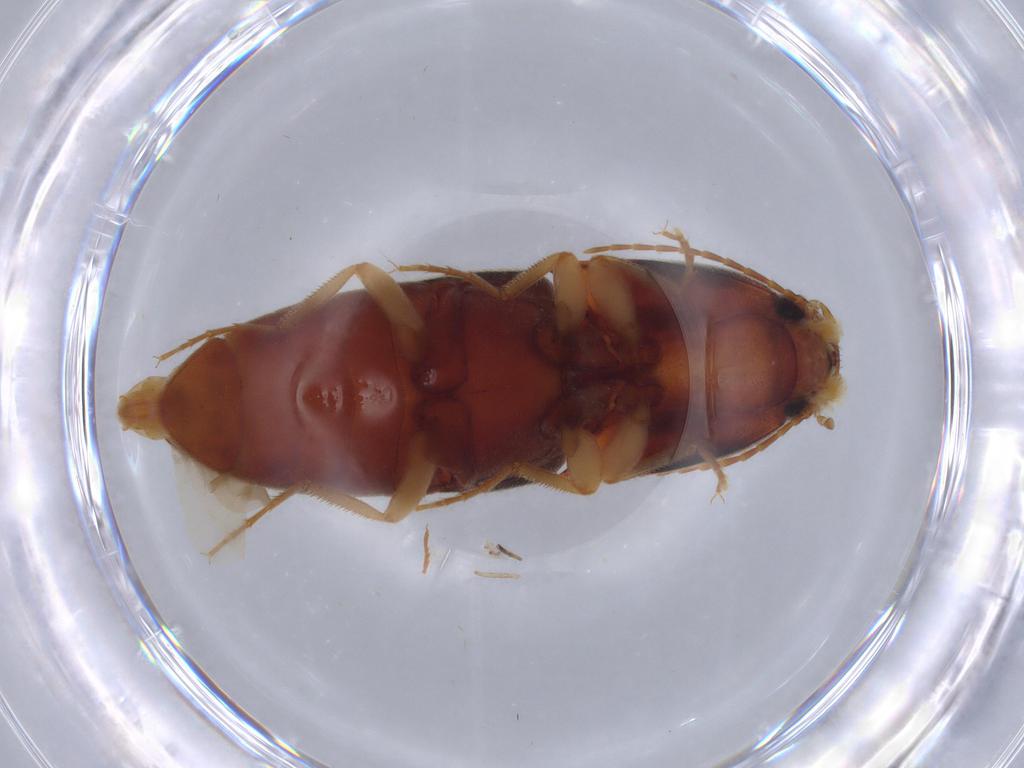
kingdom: Animalia
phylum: Arthropoda
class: Insecta
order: Coleoptera
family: Elateridae
